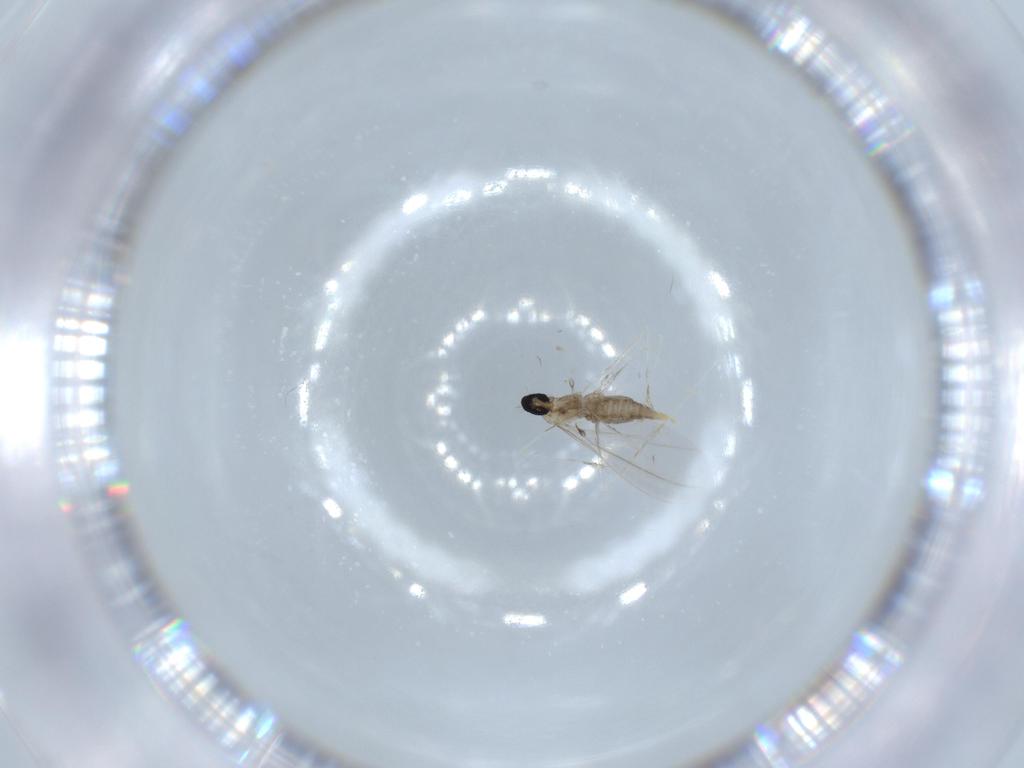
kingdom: Animalia
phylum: Arthropoda
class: Insecta
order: Diptera
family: Cecidomyiidae
